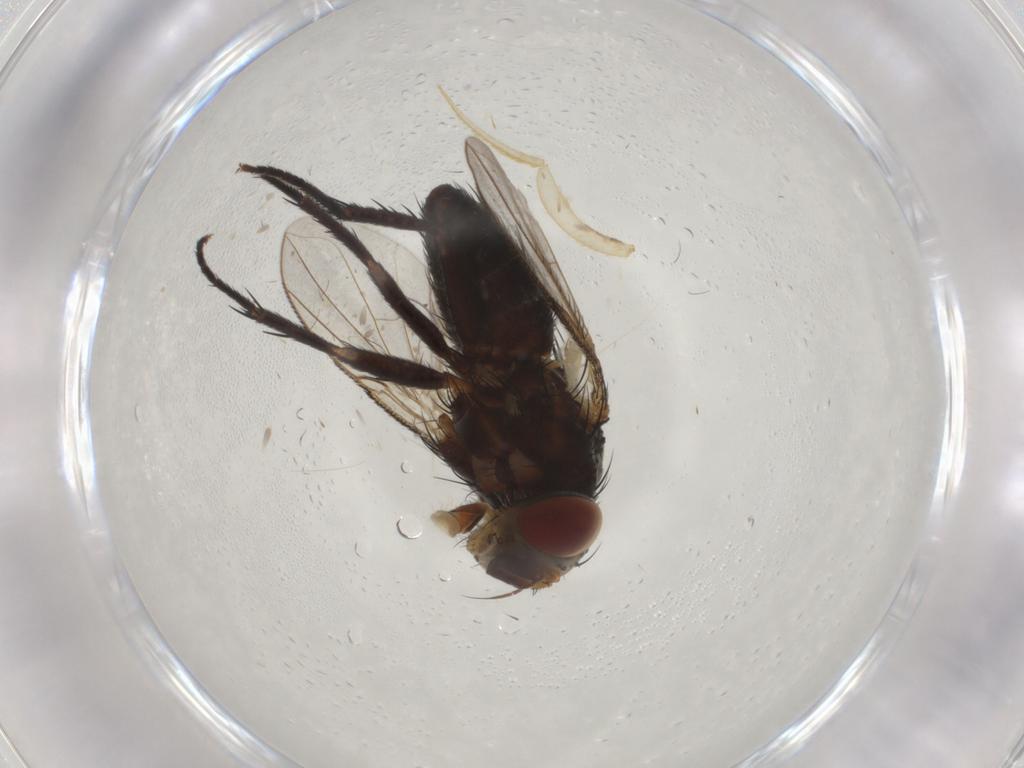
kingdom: Animalia
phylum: Arthropoda
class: Insecta
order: Diptera
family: Tachinidae
